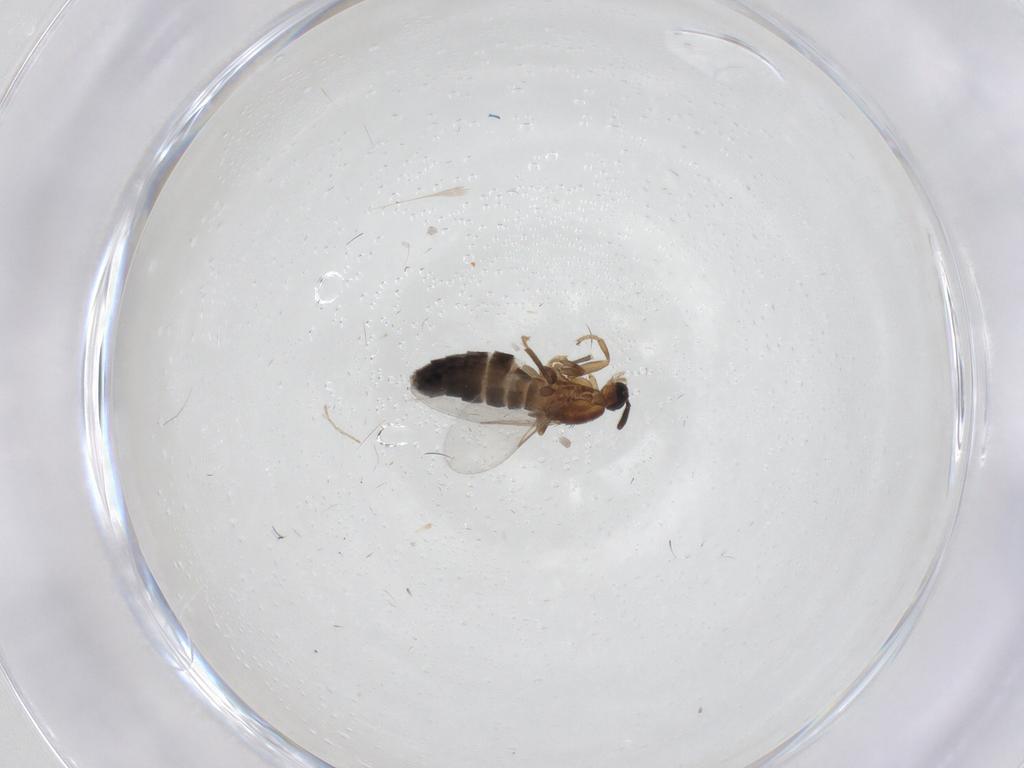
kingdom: Animalia
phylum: Arthropoda
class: Insecta
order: Diptera
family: Scatopsidae
